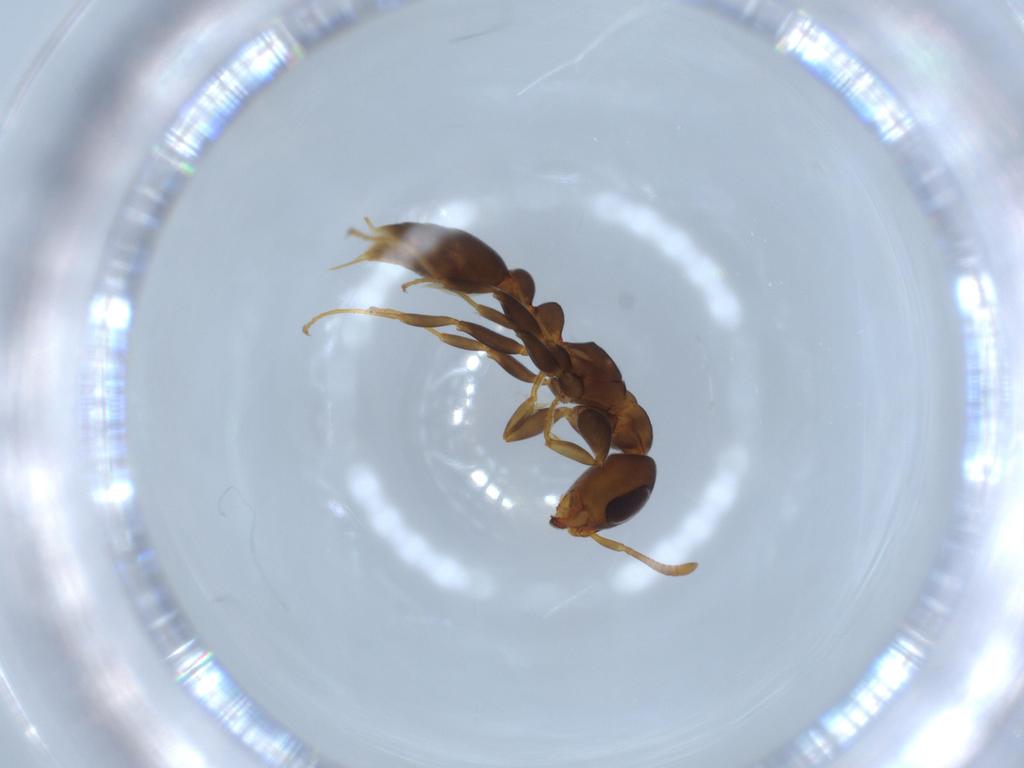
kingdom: Animalia
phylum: Arthropoda
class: Insecta
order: Hymenoptera
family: Formicidae
